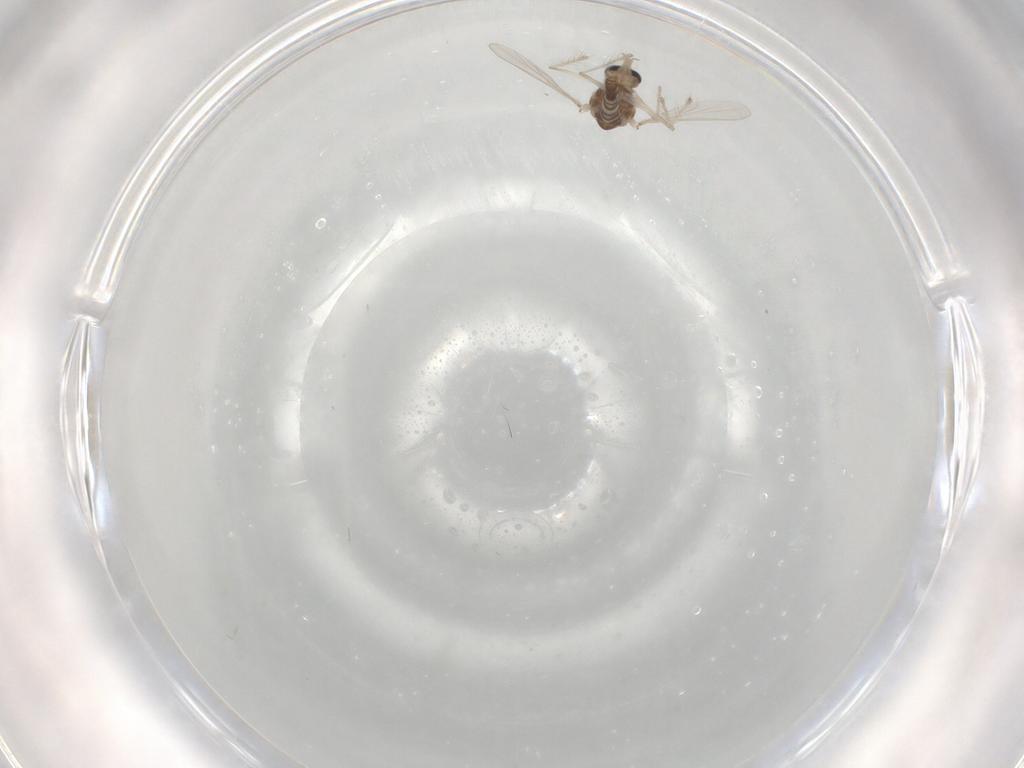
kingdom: Animalia
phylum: Arthropoda
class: Insecta
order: Diptera
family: Chironomidae
